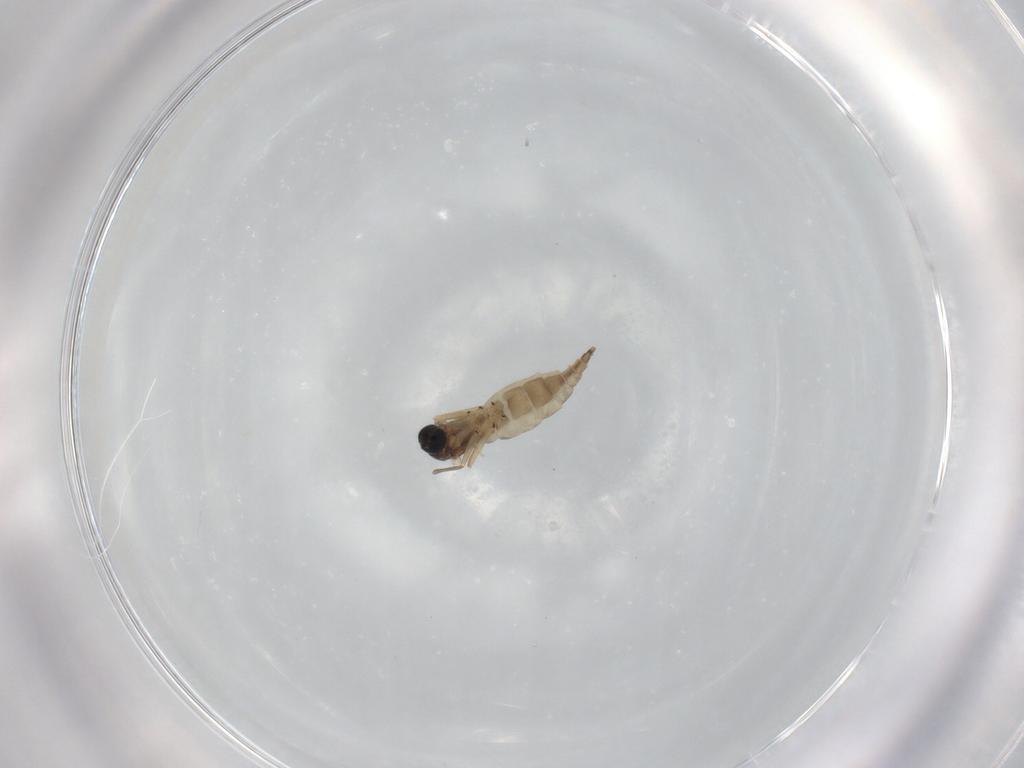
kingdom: Animalia
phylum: Arthropoda
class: Insecta
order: Diptera
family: Sciaridae
